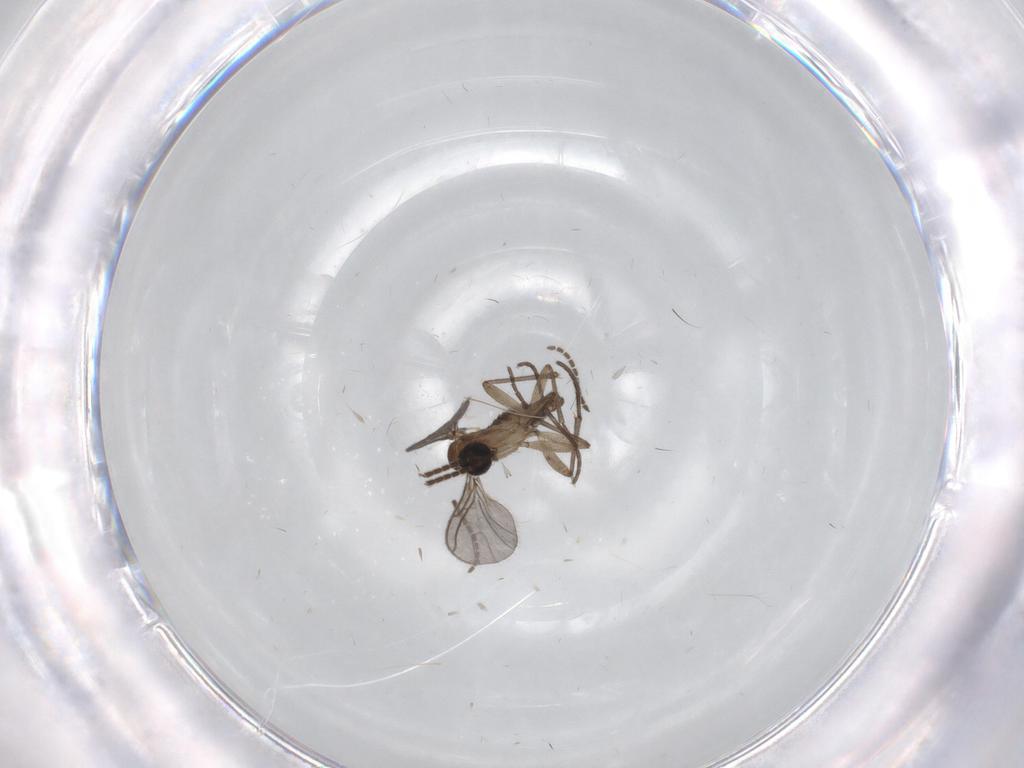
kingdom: Animalia
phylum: Arthropoda
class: Insecta
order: Diptera
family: Sciaridae
